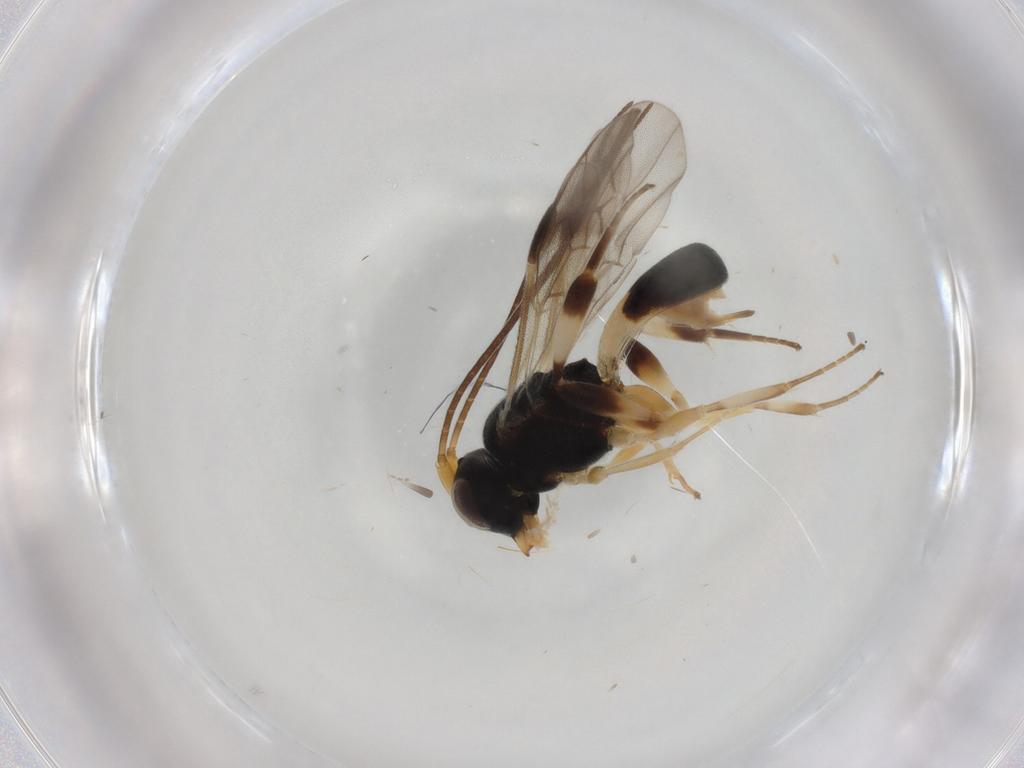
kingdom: Animalia
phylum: Arthropoda
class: Insecta
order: Hymenoptera
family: Braconidae
